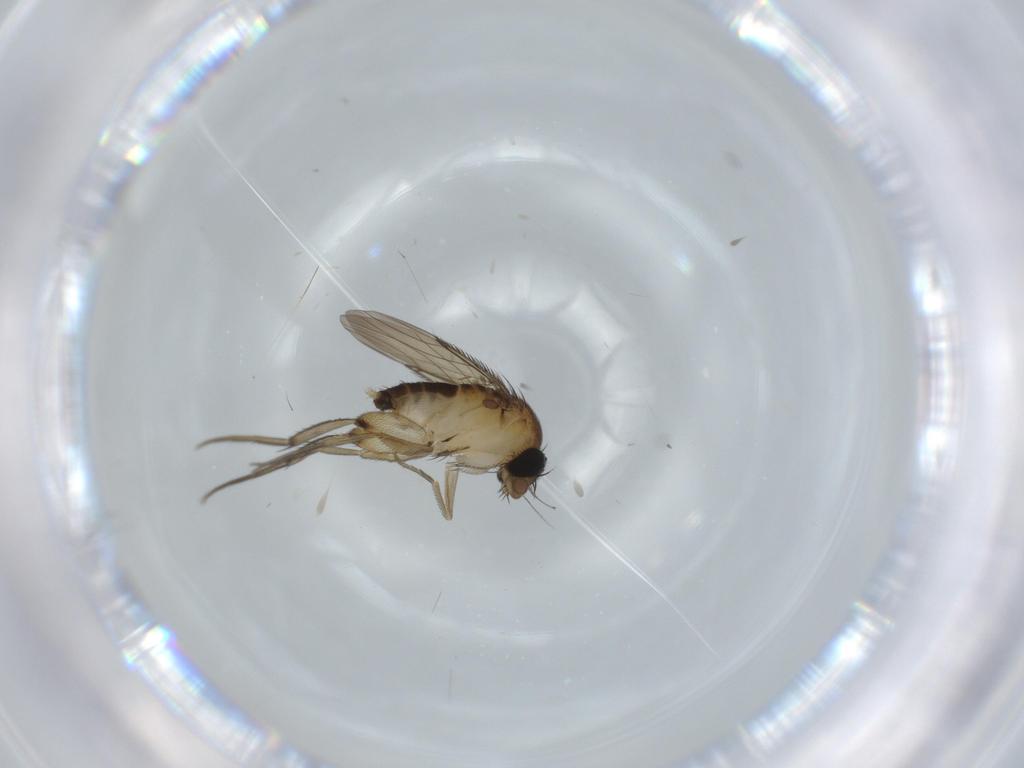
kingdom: Animalia
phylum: Arthropoda
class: Insecta
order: Diptera
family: Phoridae
